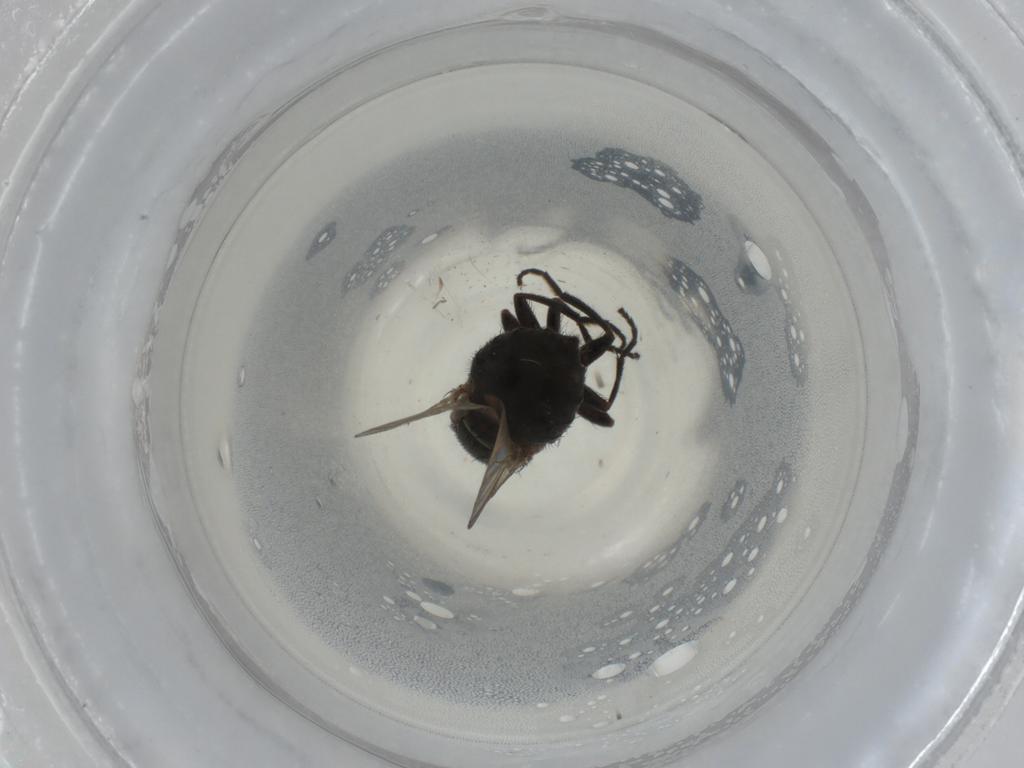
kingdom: Animalia
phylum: Arthropoda
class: Insecta
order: Diptera
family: Milichiidae
